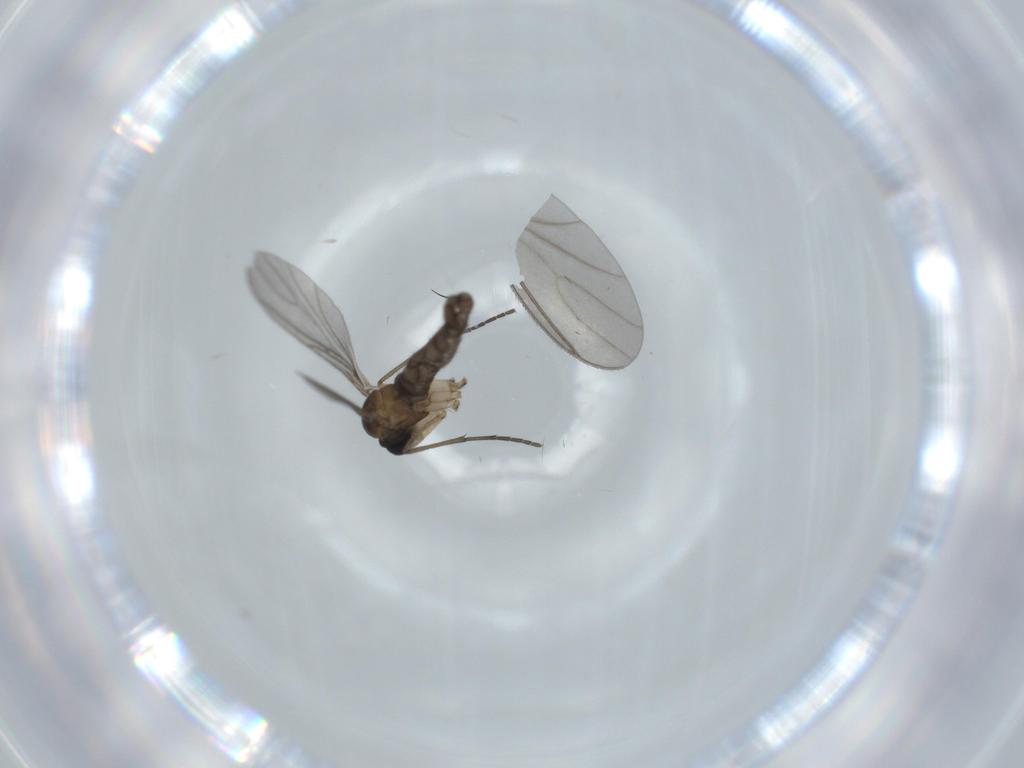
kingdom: Animalia
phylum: Arthropoda
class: Insecta
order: Diptera
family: Sciaridae
